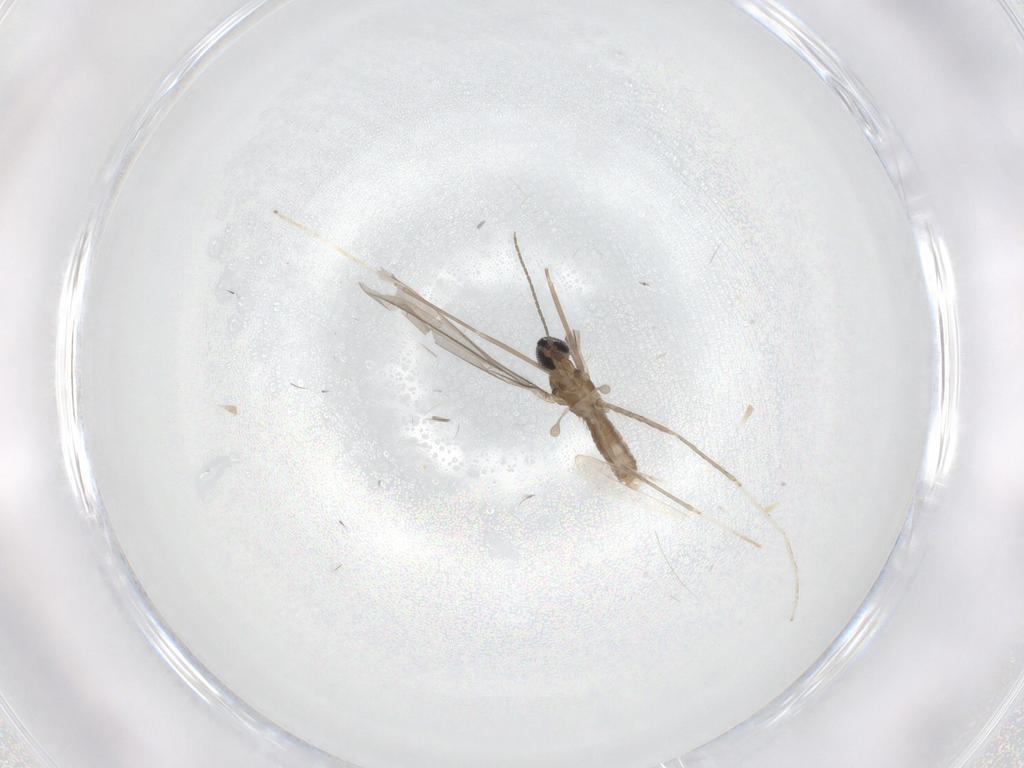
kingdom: Animalia
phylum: Arthropoda
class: Insecta
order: Diptera
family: Cecidomyiidae
